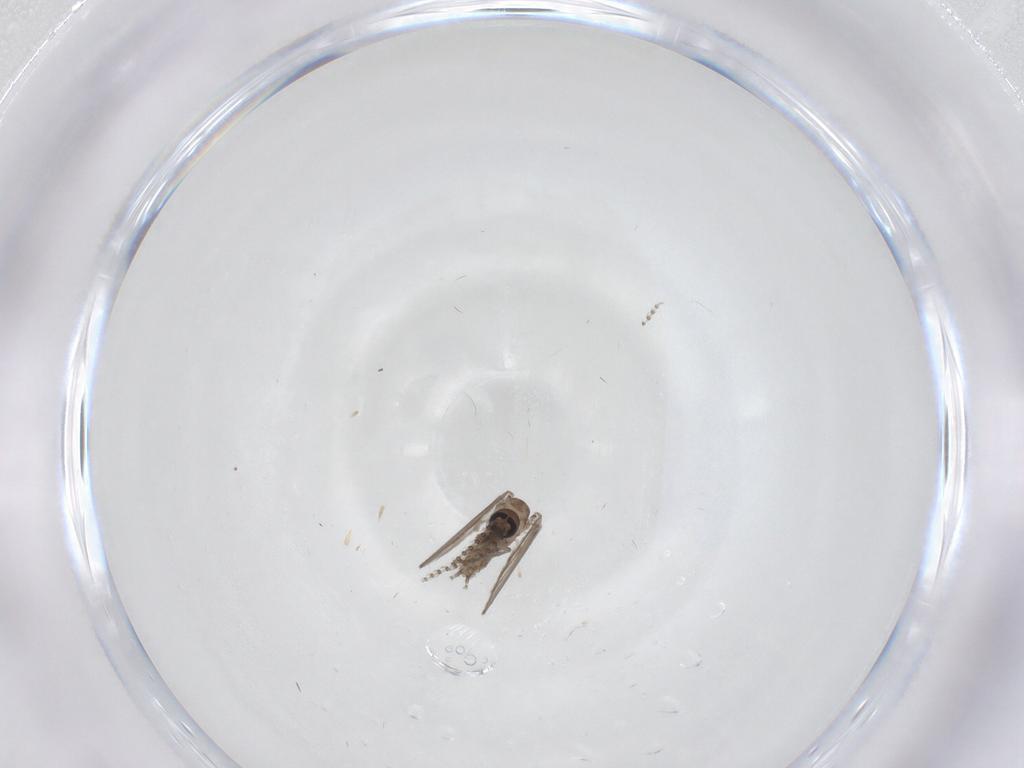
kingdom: Animalia
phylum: Arthropoda
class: Insecta
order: Diptera
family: Psychodidae
